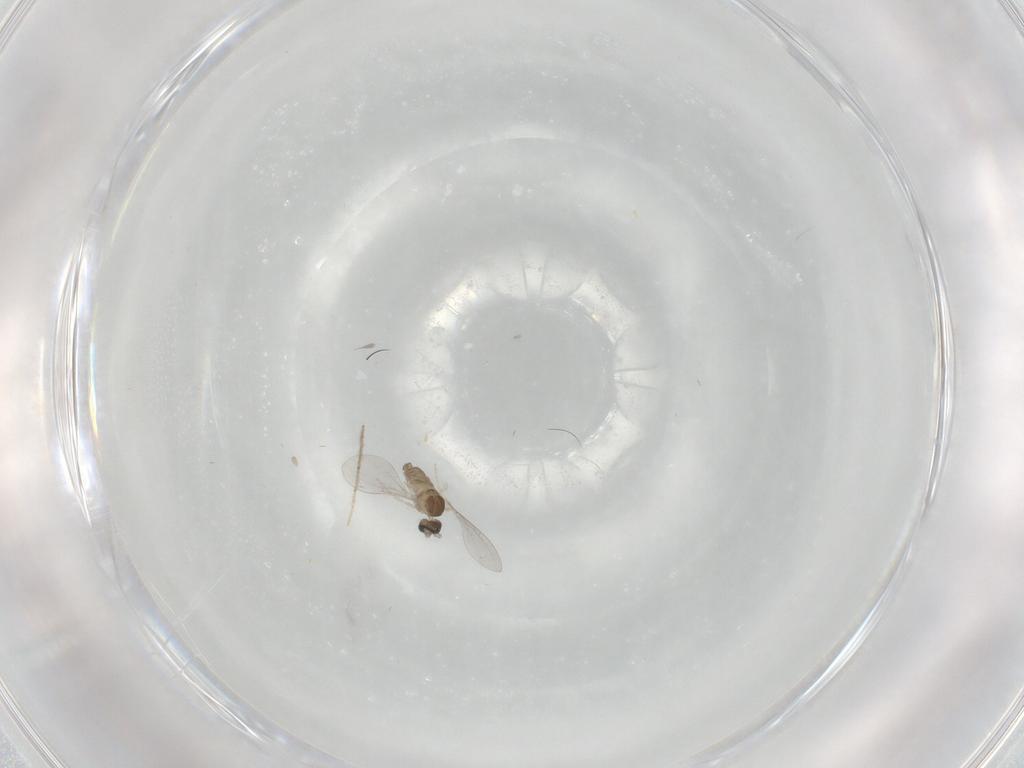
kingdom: Animalia
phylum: Arthropoda
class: Insecta
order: Diptera
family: Cecidomyiidae
